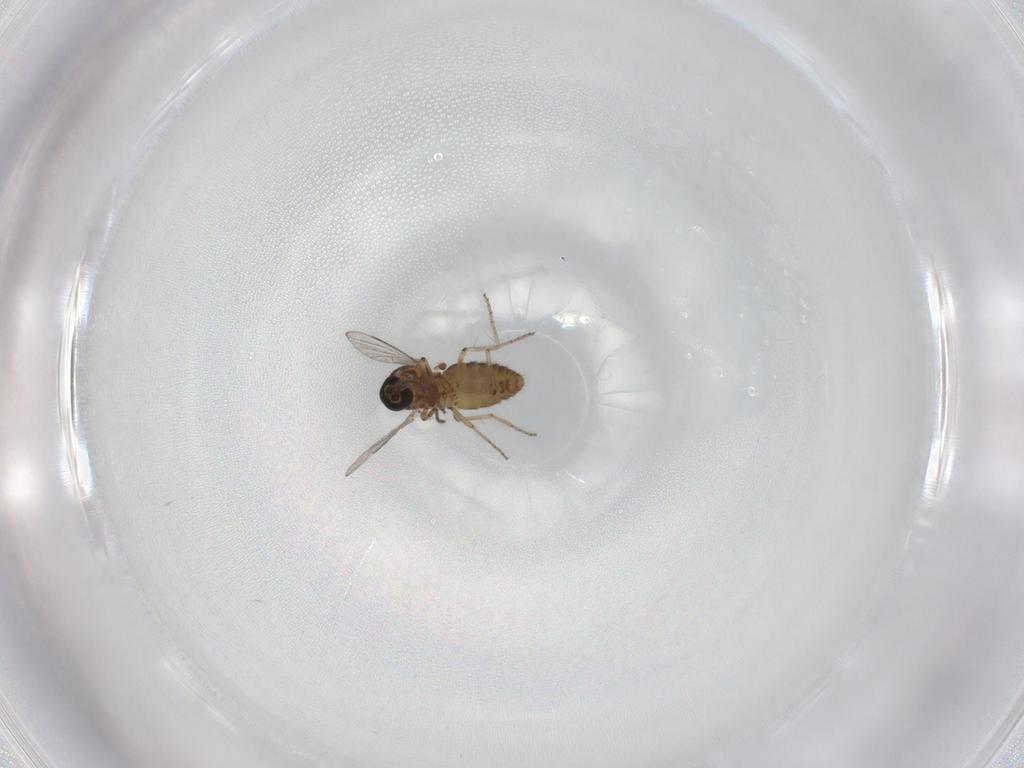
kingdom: Animalia
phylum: Arthropoda
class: Insecta
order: Diptera
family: Ceratopogonidae
